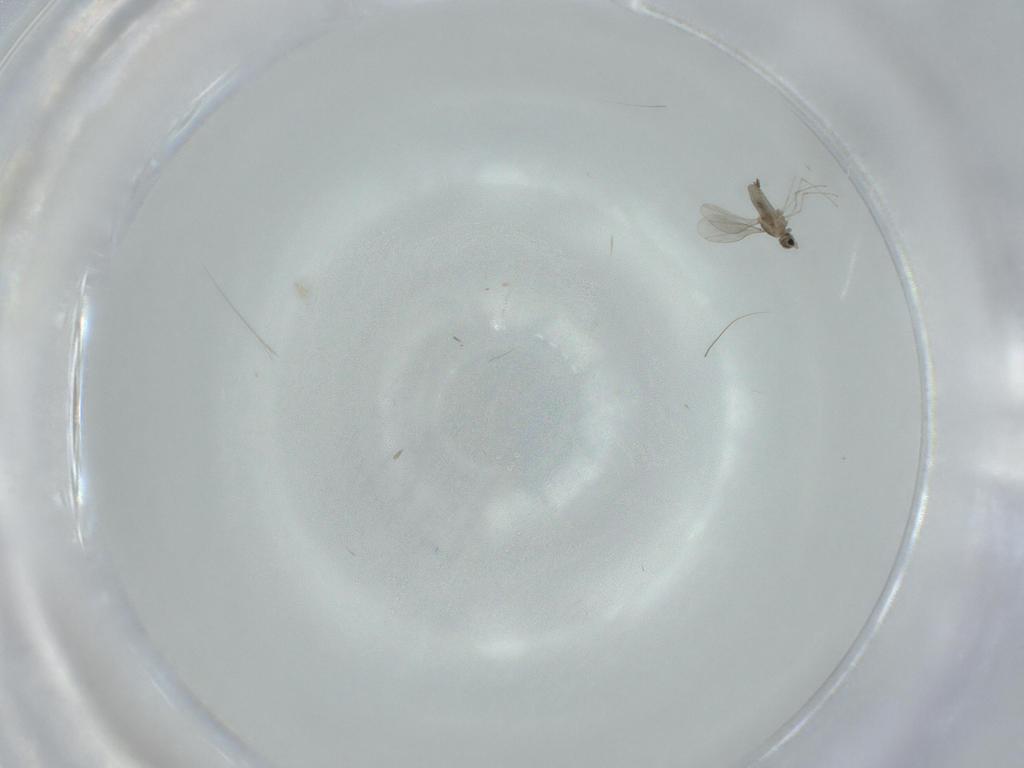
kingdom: Animalia
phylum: Arthropoda
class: Insecta
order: Diptera
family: Cecidomyiidae
